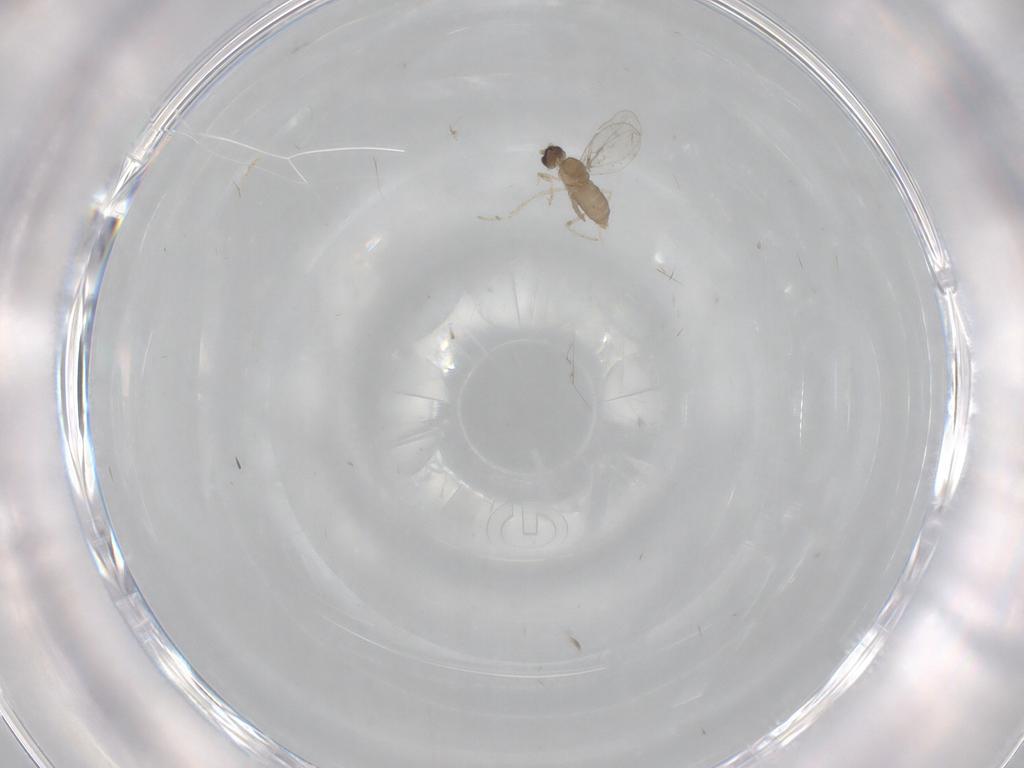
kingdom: Animalia
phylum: Arthropoda
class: Insecta
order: Diptera
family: Cecidomyiidae
